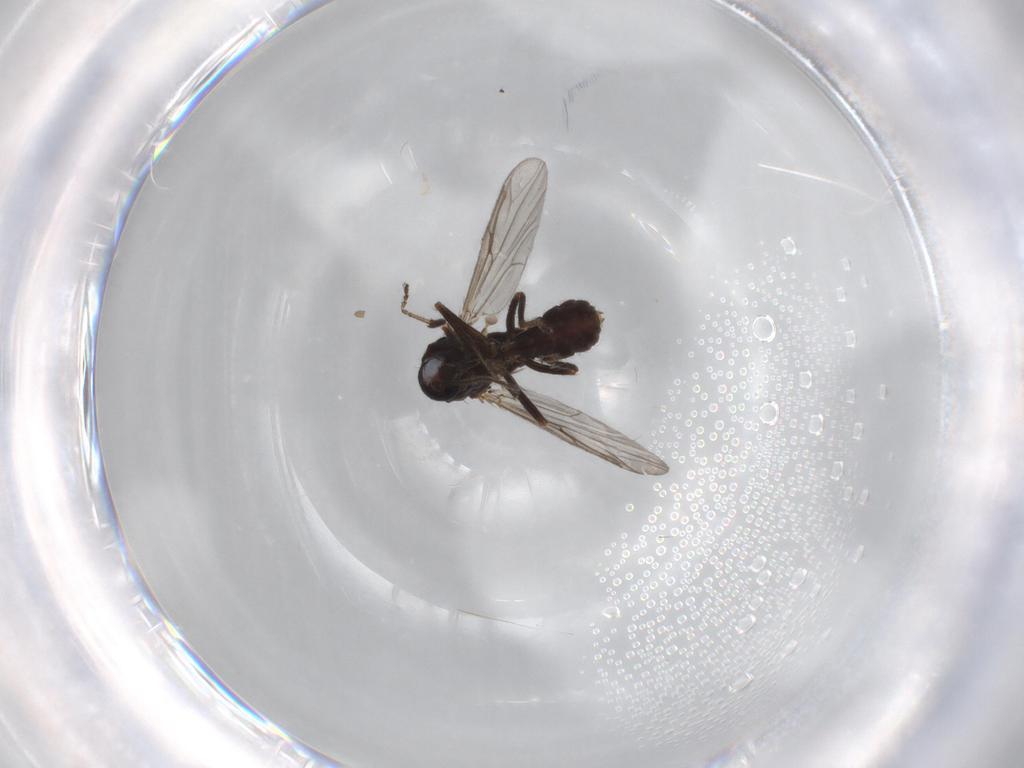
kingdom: Animalia
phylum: Arthropoda
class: Insecta
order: Diptera
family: Ceratopogonidae
